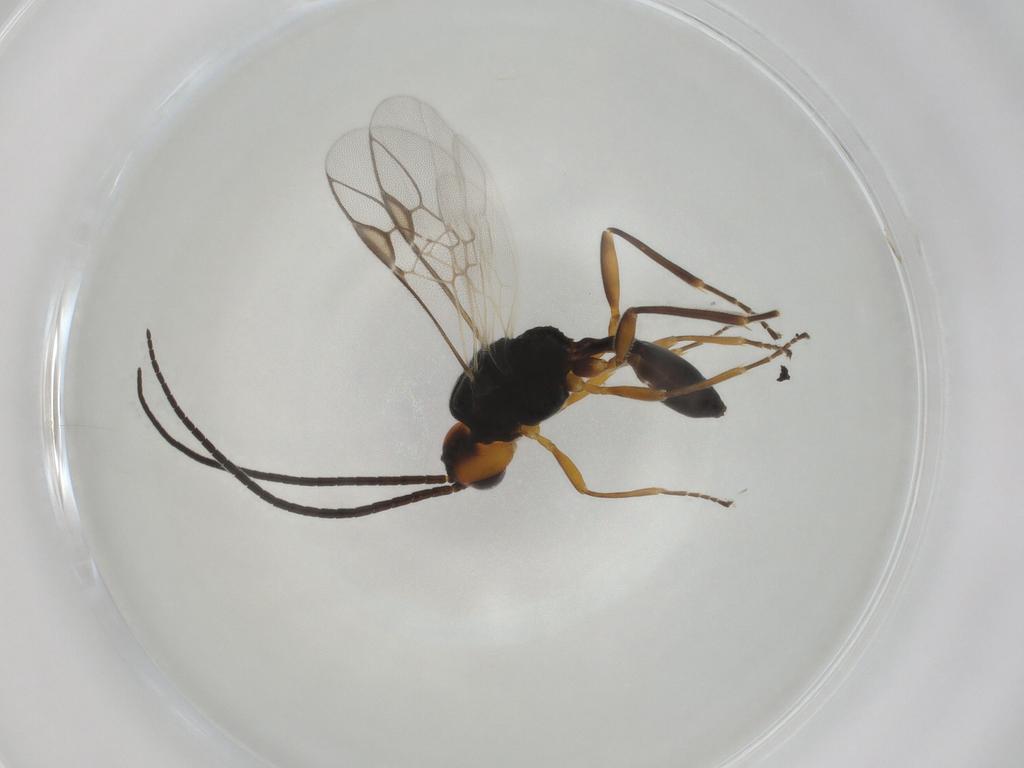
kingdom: Animalia
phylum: Arthropoda
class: Insecta
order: Hymenoptera
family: Braconidae
